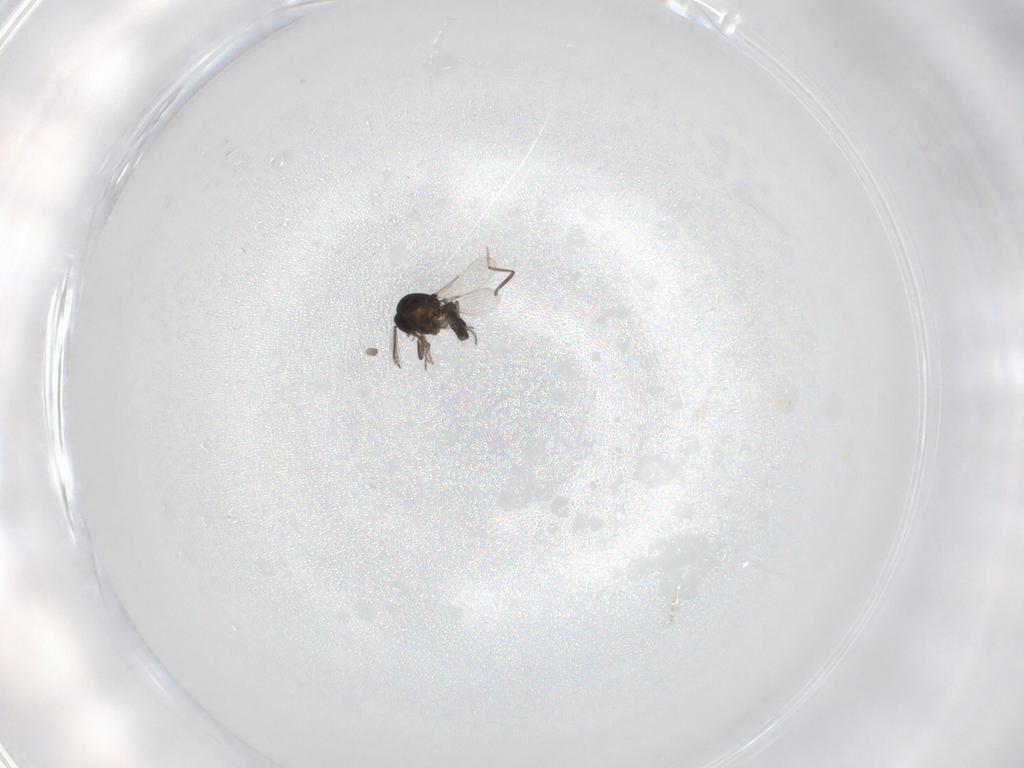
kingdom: Animalia
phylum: Arthropoda
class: Insecta
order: Diptera
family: Ceratopogonidae
